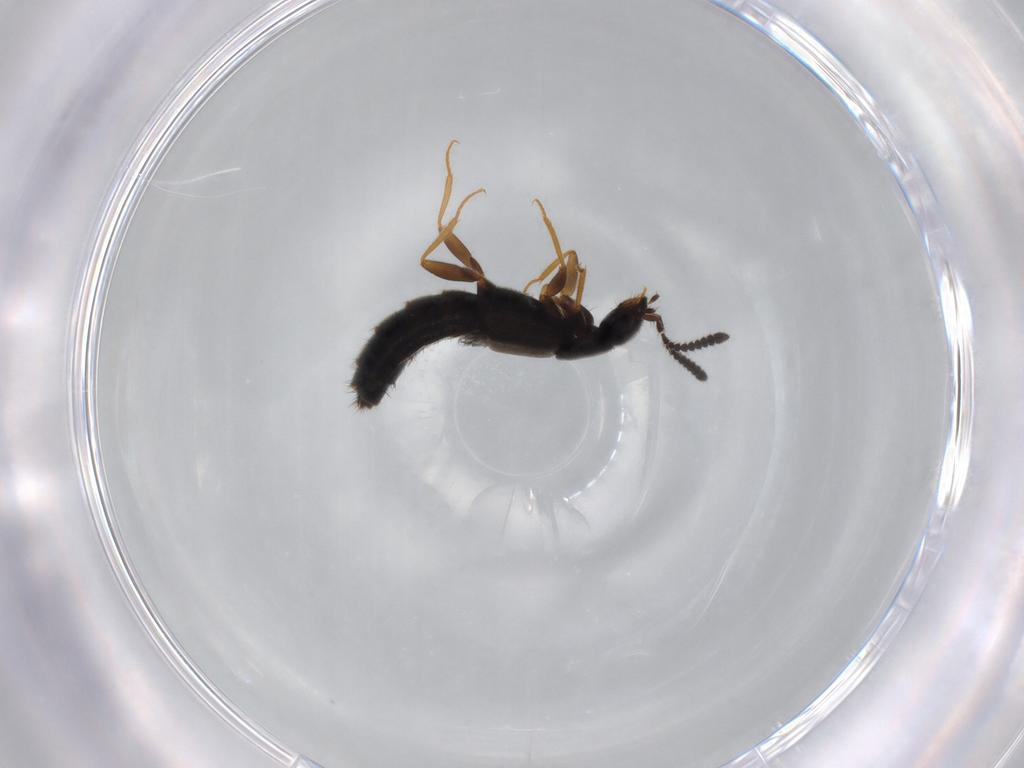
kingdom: Animalia
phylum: Arthropoda
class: Insecta
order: Coleoptera
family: Staphylinidae
